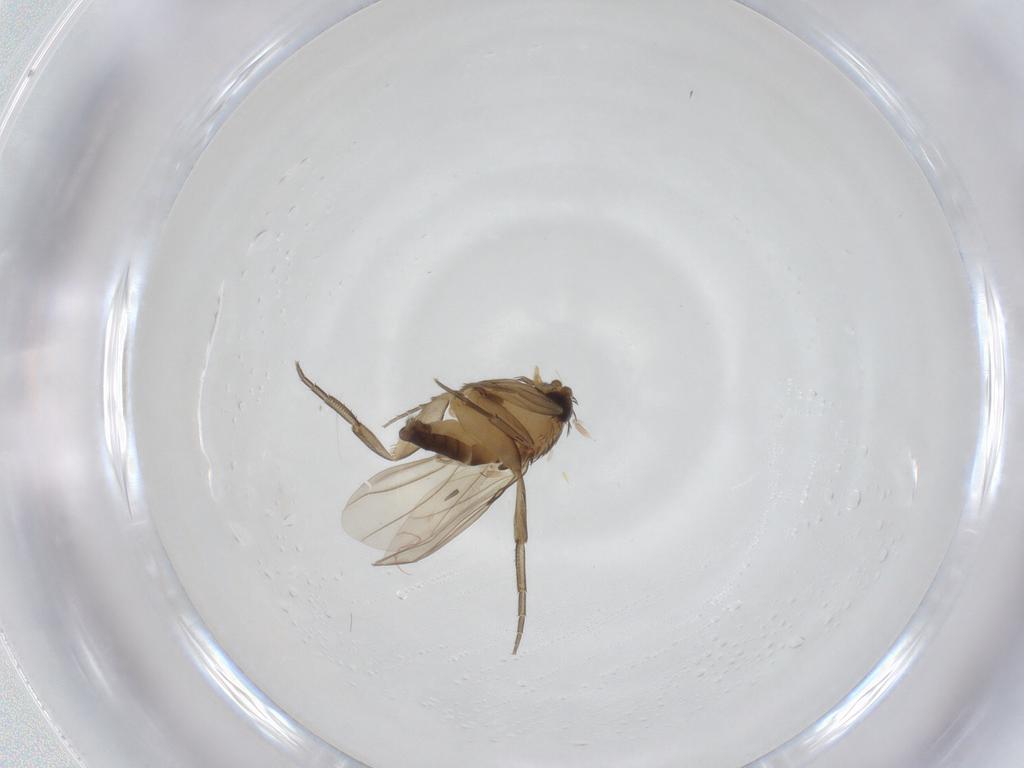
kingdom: Animalia
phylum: Arthropoda
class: Insecta
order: Diptera
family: Phoridae
